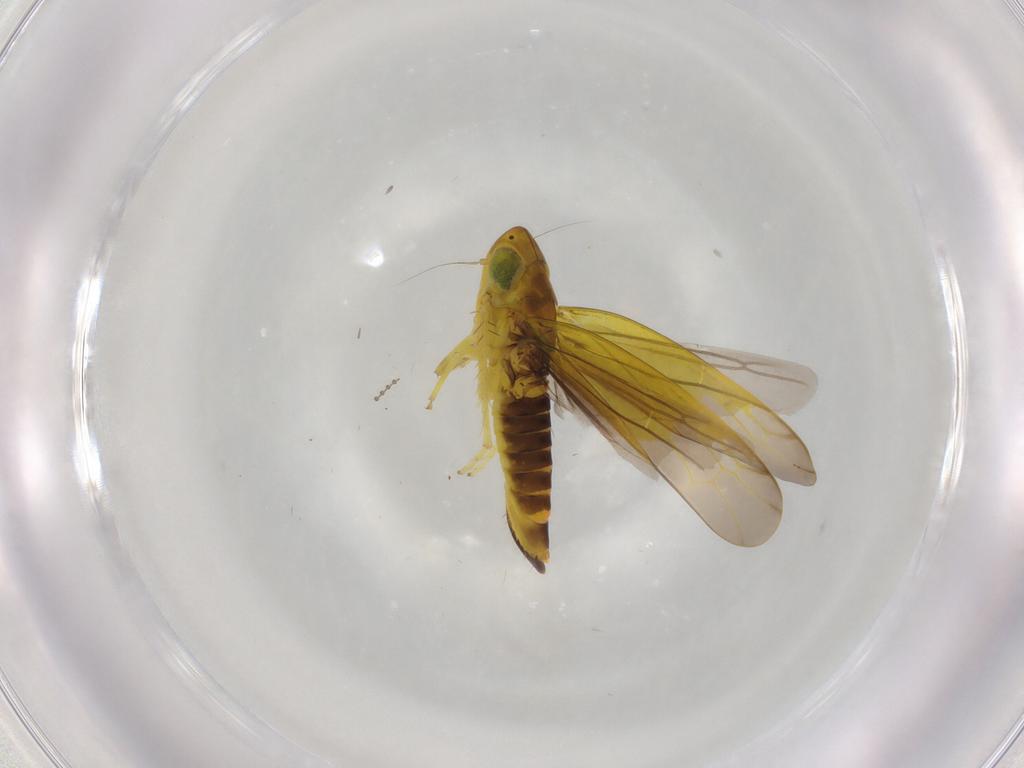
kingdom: Animalia
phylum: Arthropoda
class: Insecta
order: Hemiptera
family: Cicadellidae
